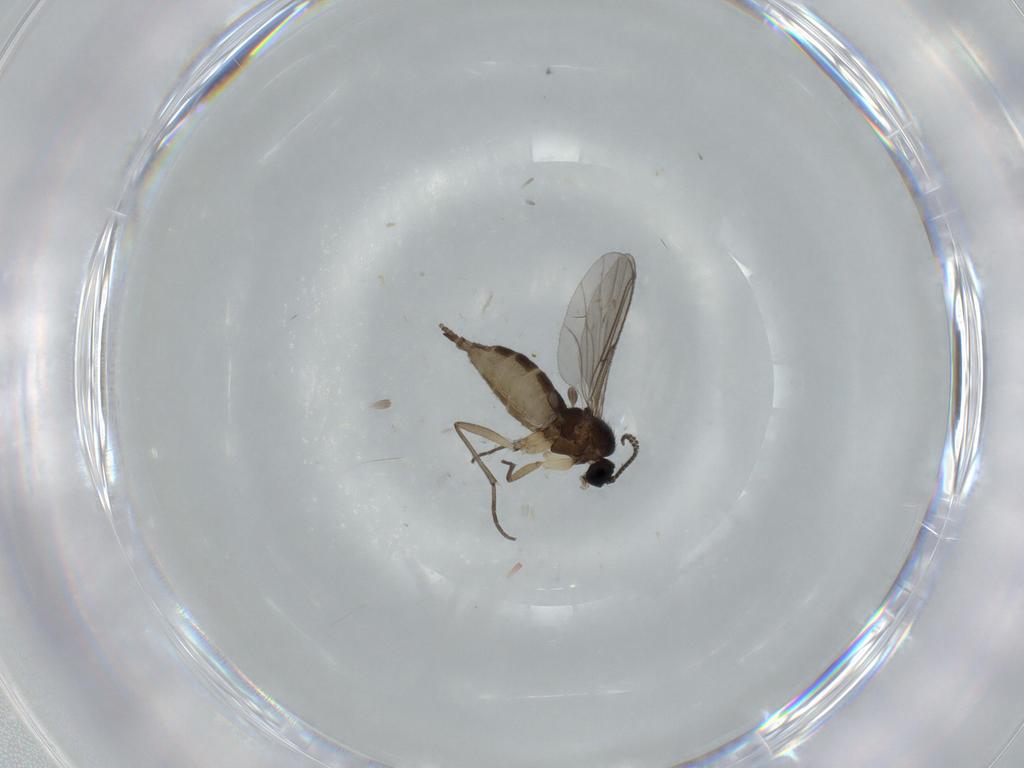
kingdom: Animalia
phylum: Arthropoda
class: Insecta
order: Diptera
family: Sciaridae
